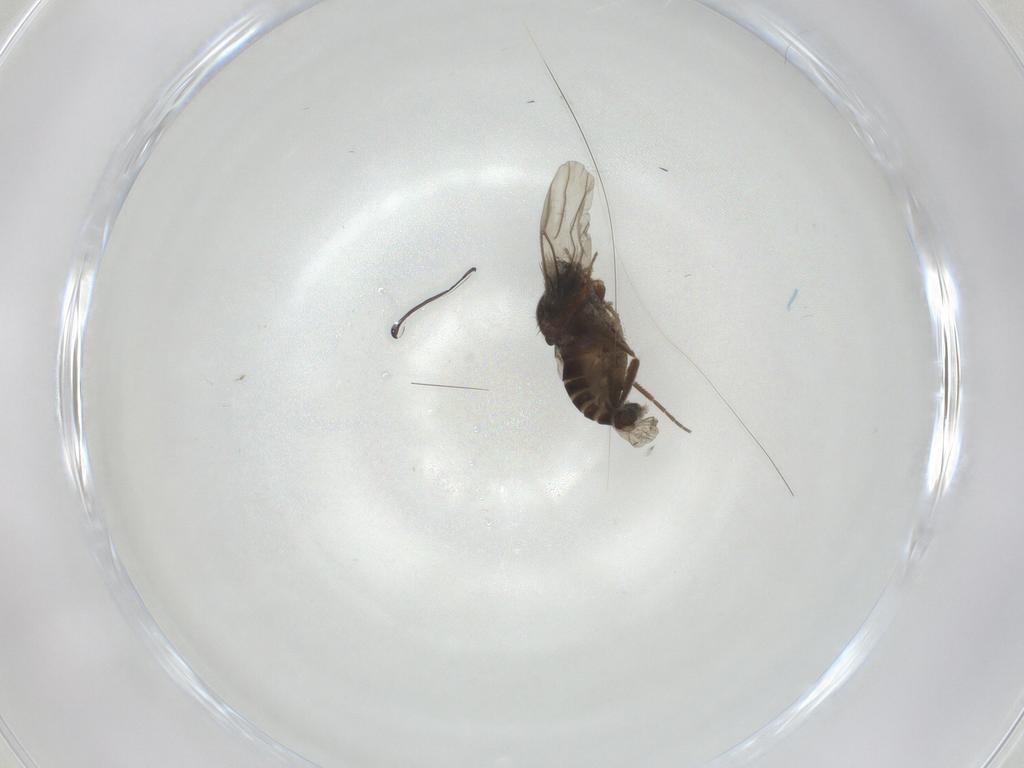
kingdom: Animalia
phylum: Arthropoda
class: Insecta
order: Diptera
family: Phoridae
